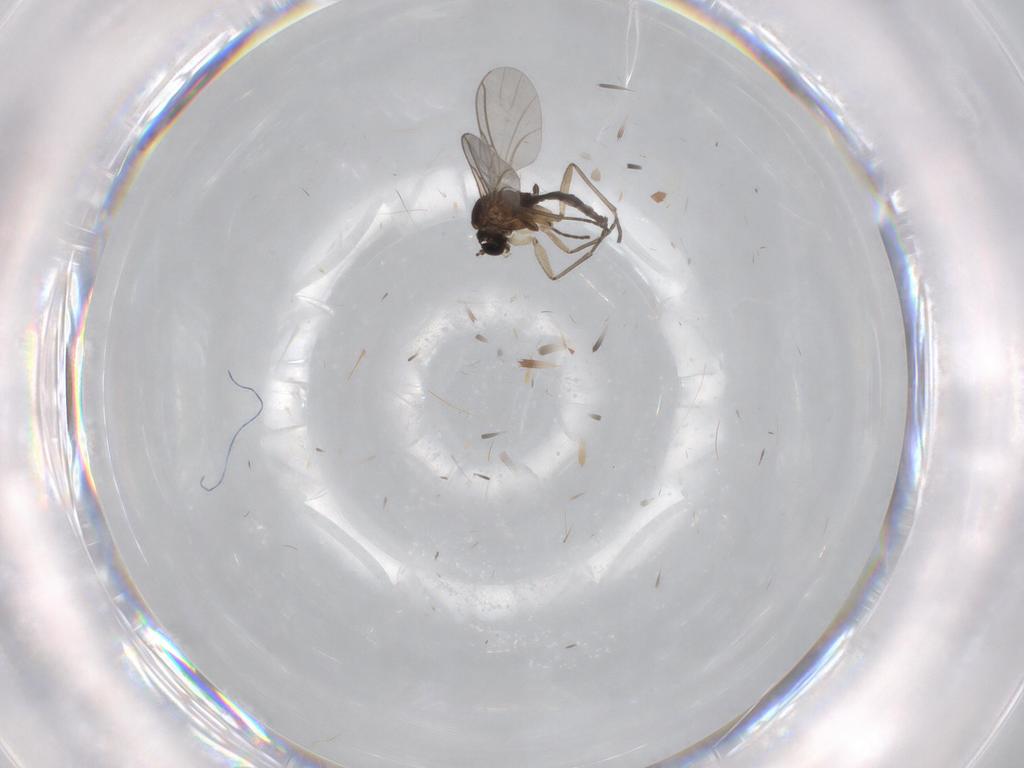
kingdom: Animalia
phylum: Arthropoda
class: Insecta
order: Diptera
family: Sciaridae
